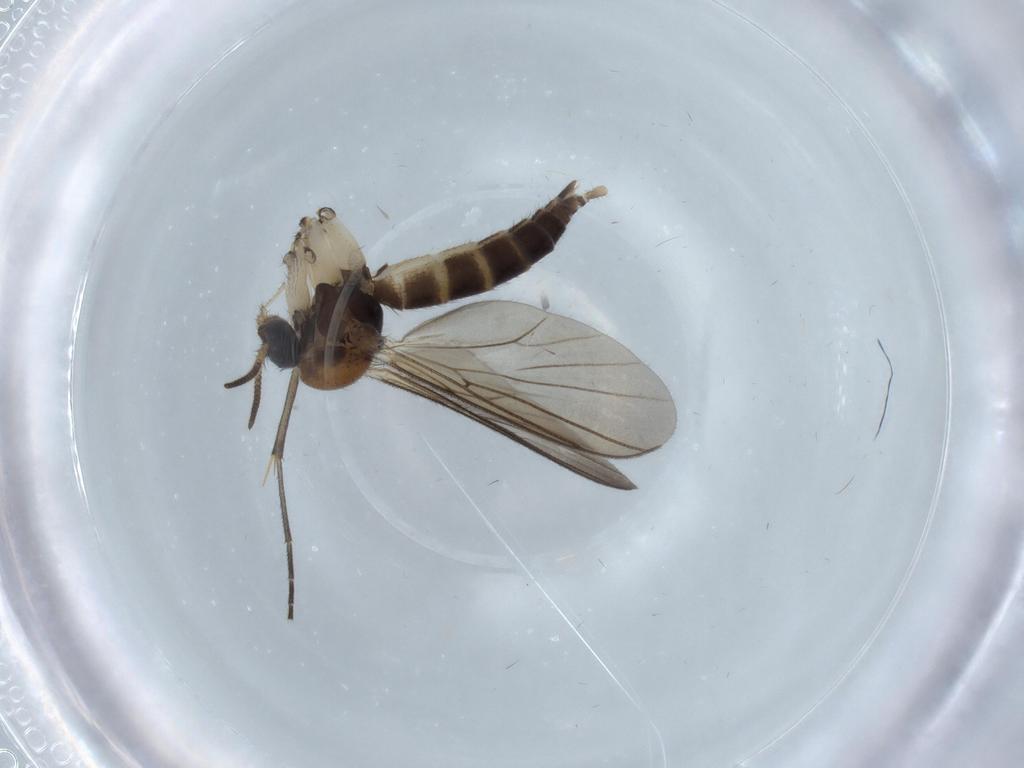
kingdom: Animalia
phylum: Arthropoda
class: Insecta
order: Diptera
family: Mycetophilidae
